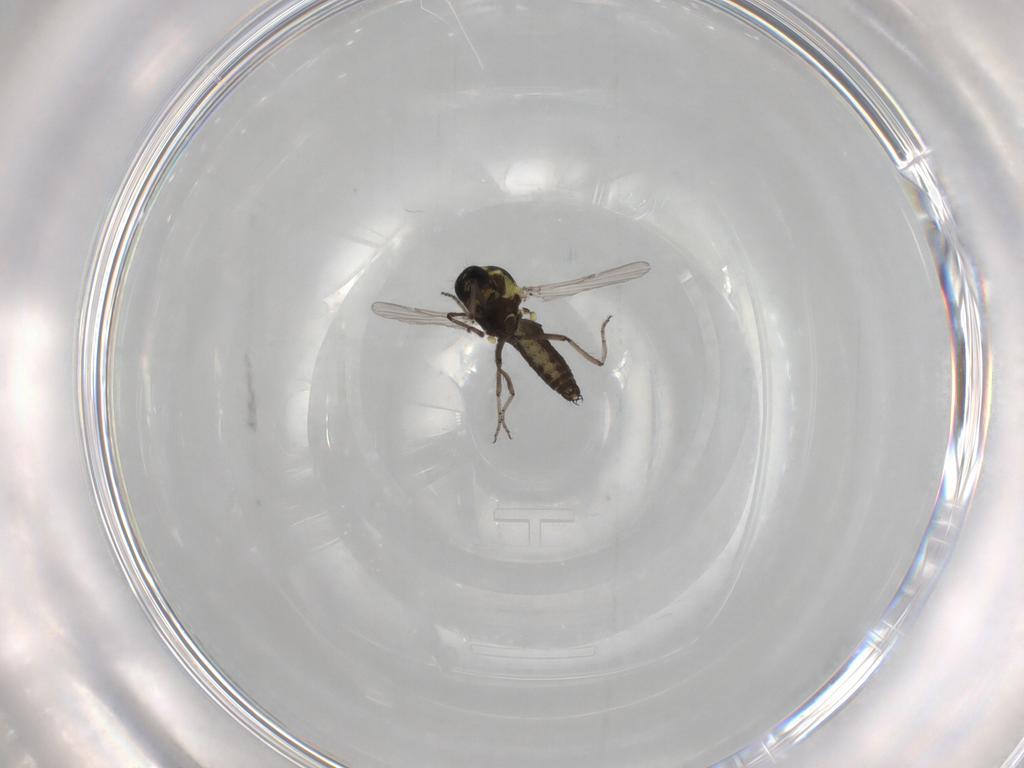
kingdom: Animalia
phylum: Arthropoda
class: Insecta
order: Diptera
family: Ceratopogonidae
